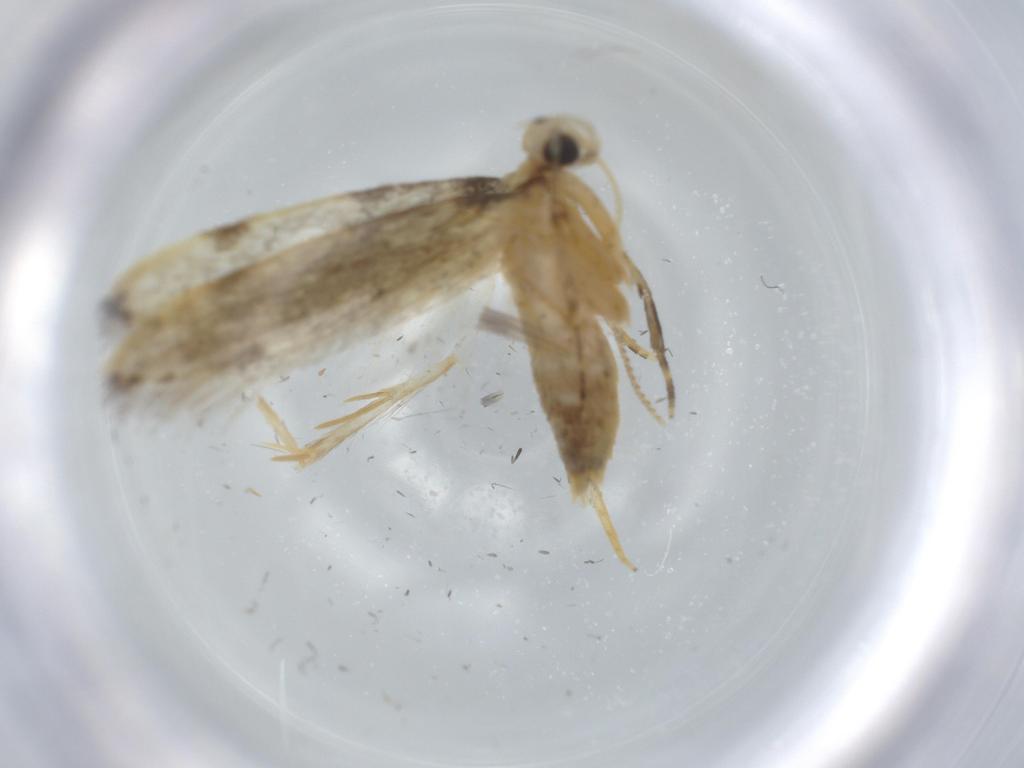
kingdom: Animalia
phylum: Arthropoda
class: Insecta
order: Lepidoptera
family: Autostichidae
